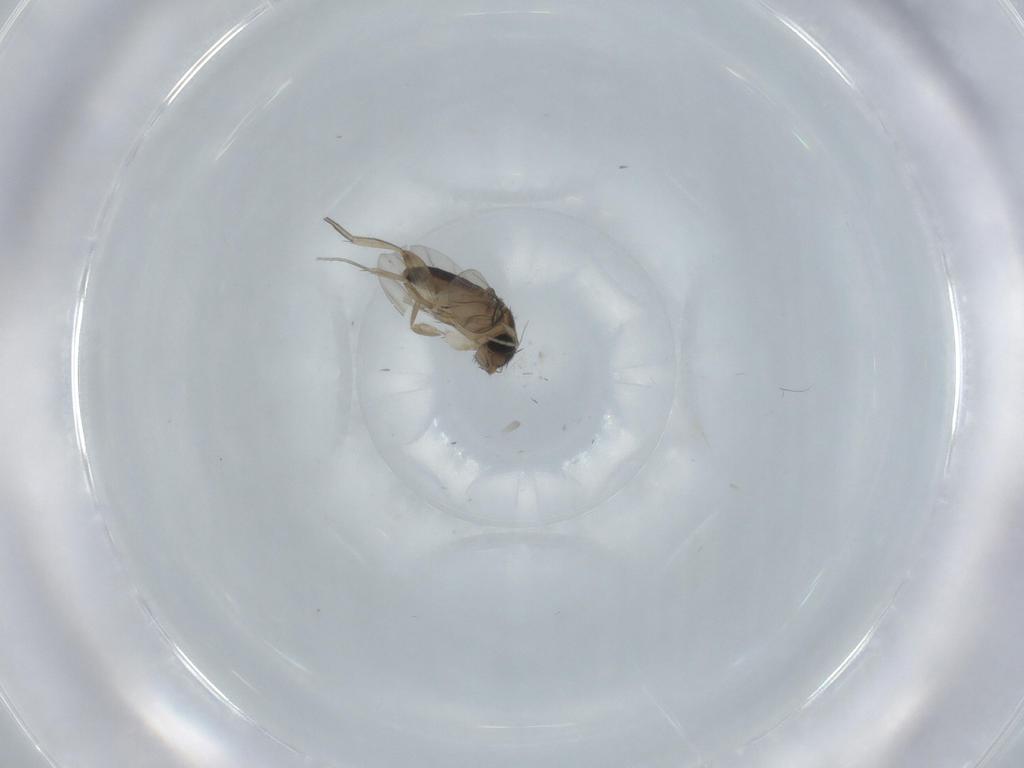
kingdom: Animalia
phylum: Arthropoda
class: Insecta
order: Diptera
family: Phoridae
